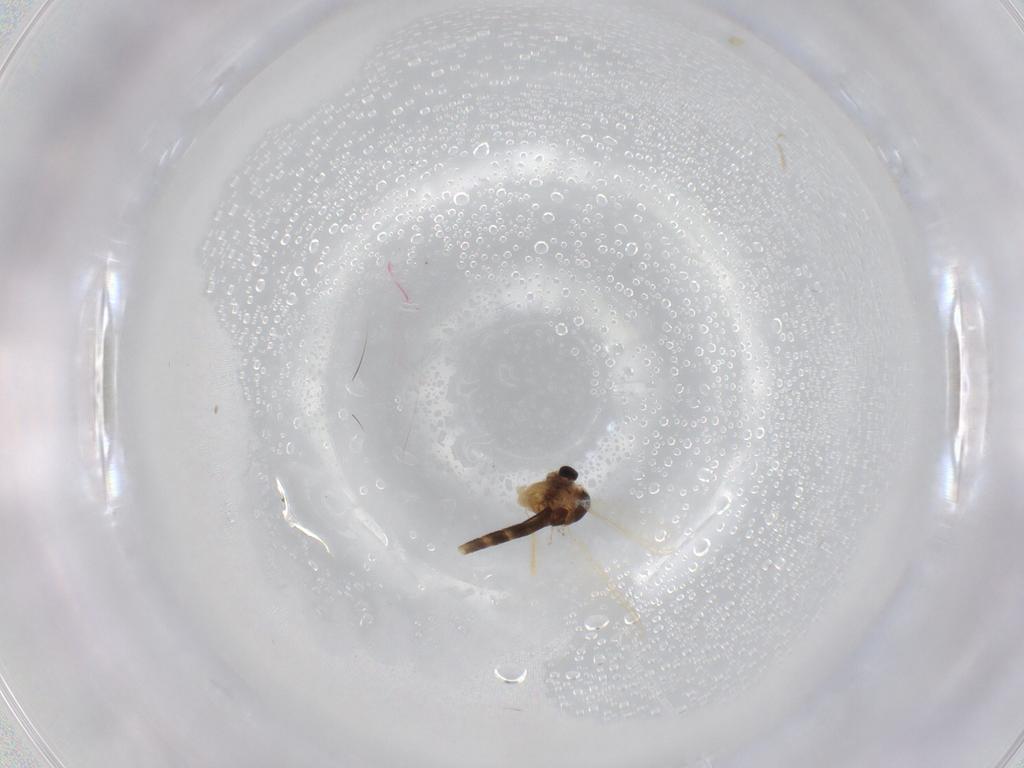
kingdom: Animalia
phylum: Arthropoda
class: Insecta
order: Diptera
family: Chironomidae
